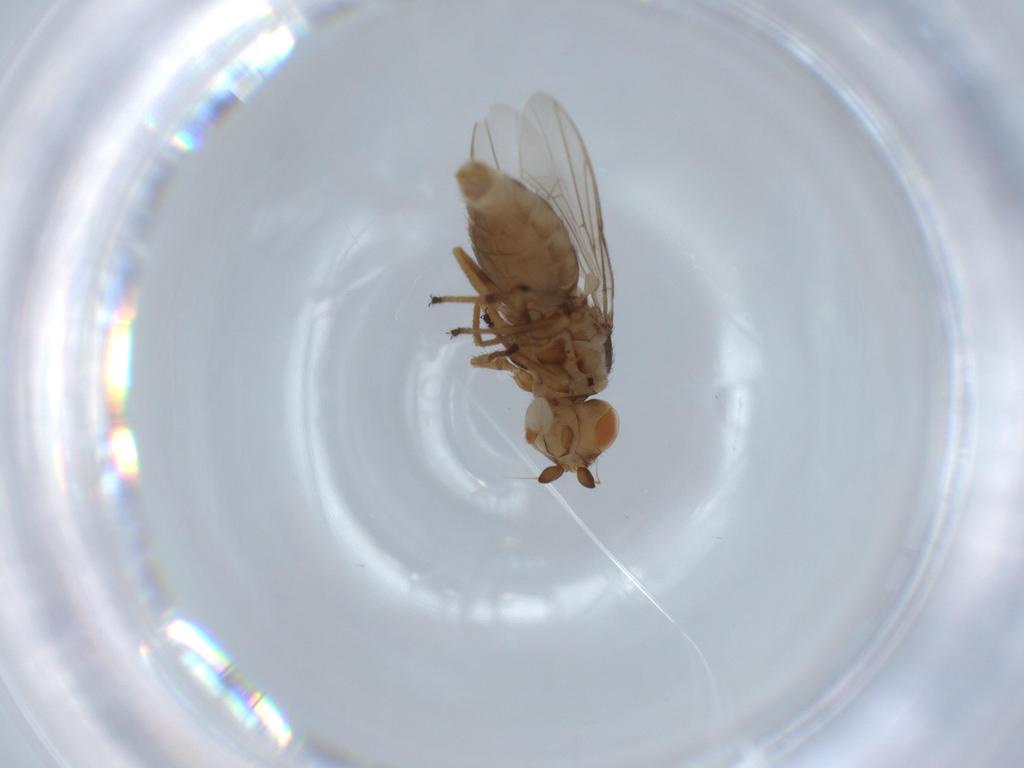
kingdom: Animalia
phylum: Arthropoda
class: Insecta
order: Diptera
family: Chloropidae
